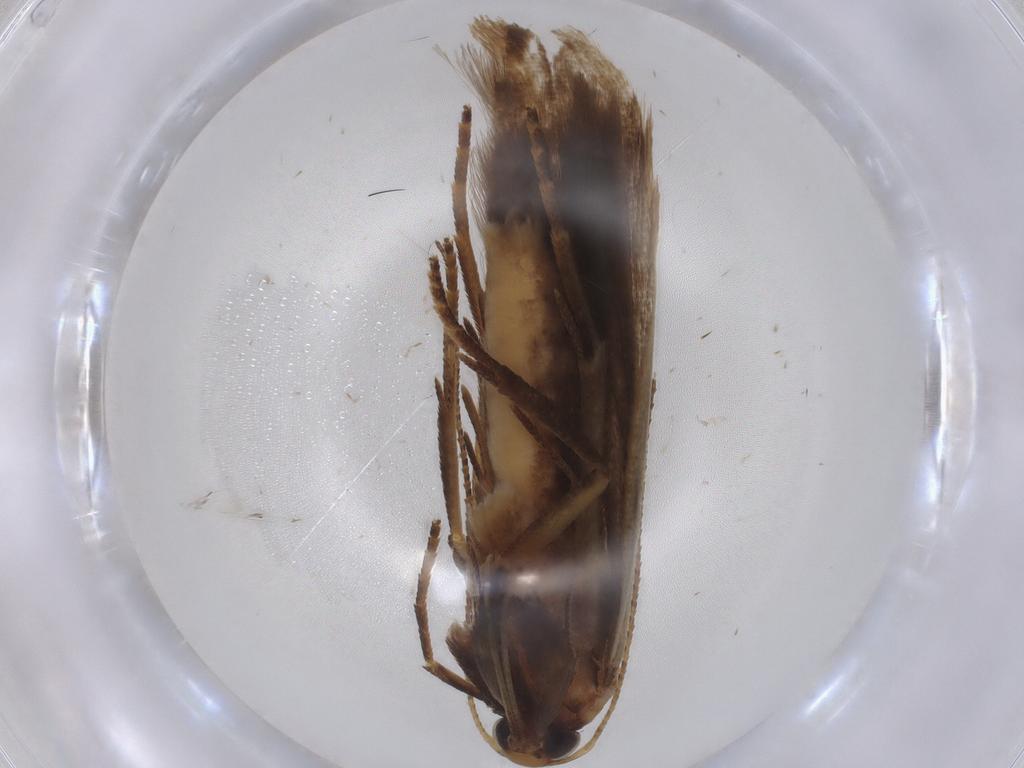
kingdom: Animalia
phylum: Arthropoda
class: Insecta
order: Lepidoptera
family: Gelechiidae
